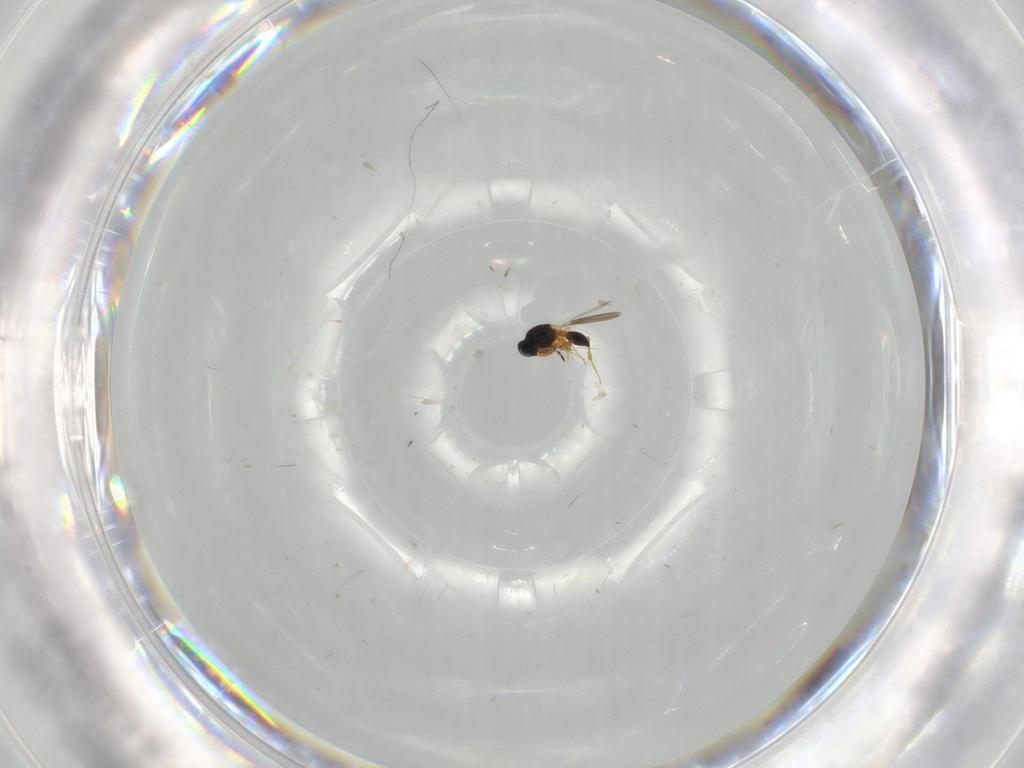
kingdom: Animalia
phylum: Arthropoda
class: Insecta
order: Hymenoptera
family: Platygastridae
